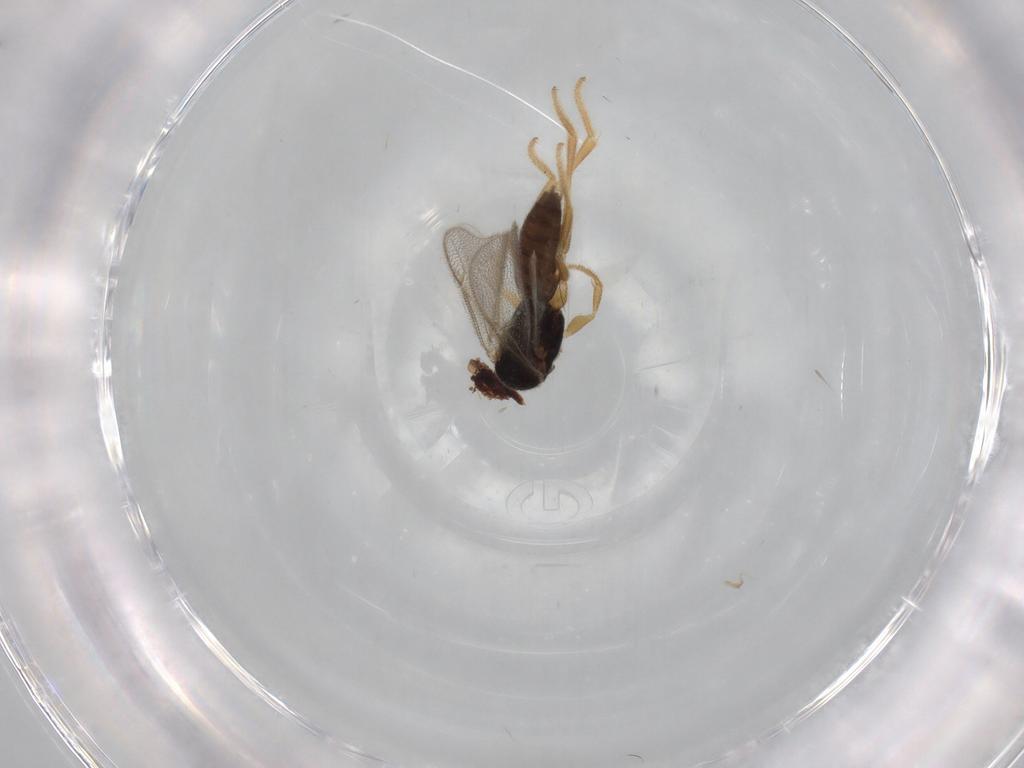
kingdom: Animalia
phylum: Arthropoda
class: Insecta
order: Hymenoptera
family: Dryinidae
